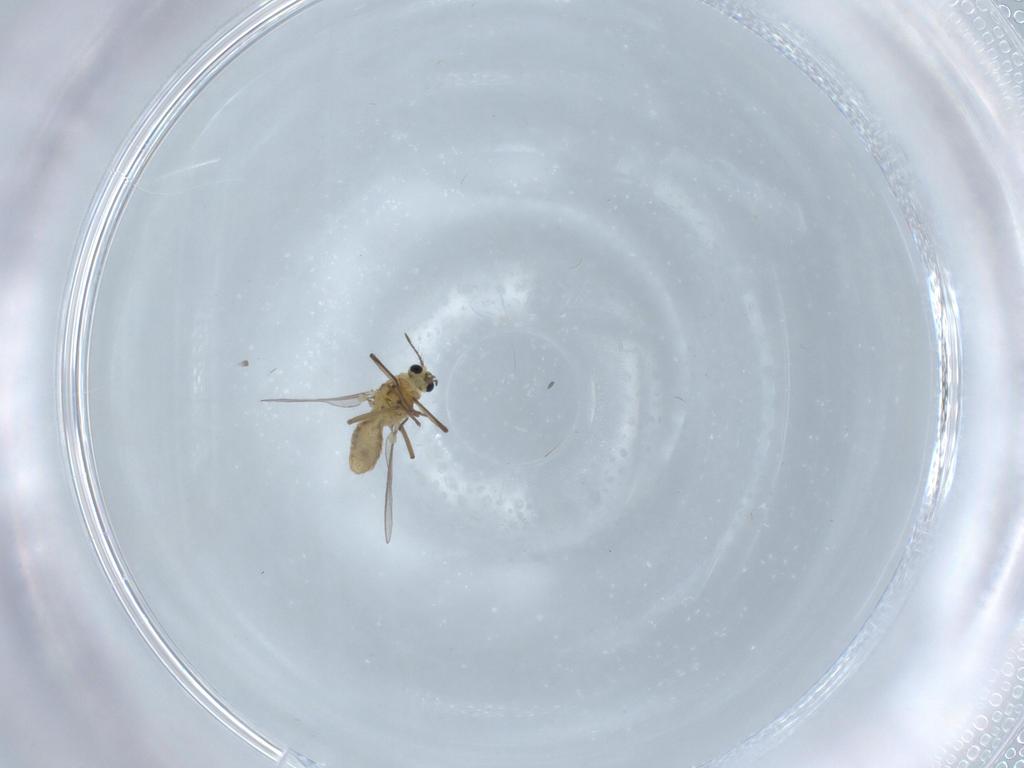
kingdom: Animalia
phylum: Arthropoda
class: Insecta
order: Diptera
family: Chironomidae
